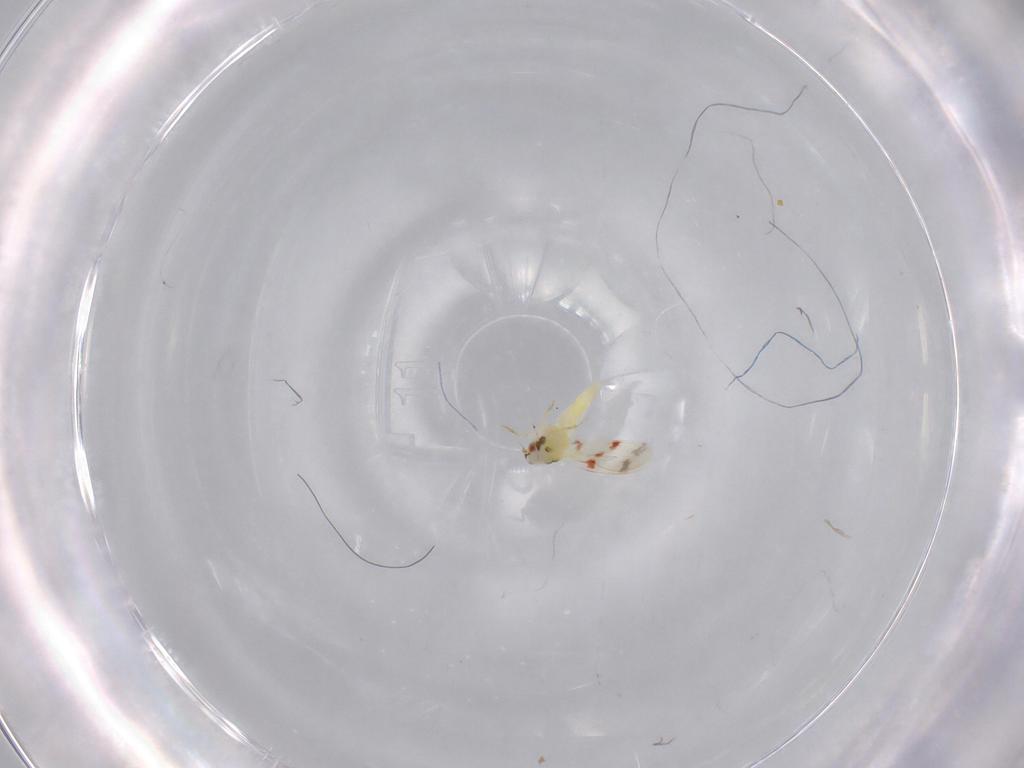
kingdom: Animalia
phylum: Arthropoda
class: Insecta
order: Hemiptera
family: Aleyrodidae
